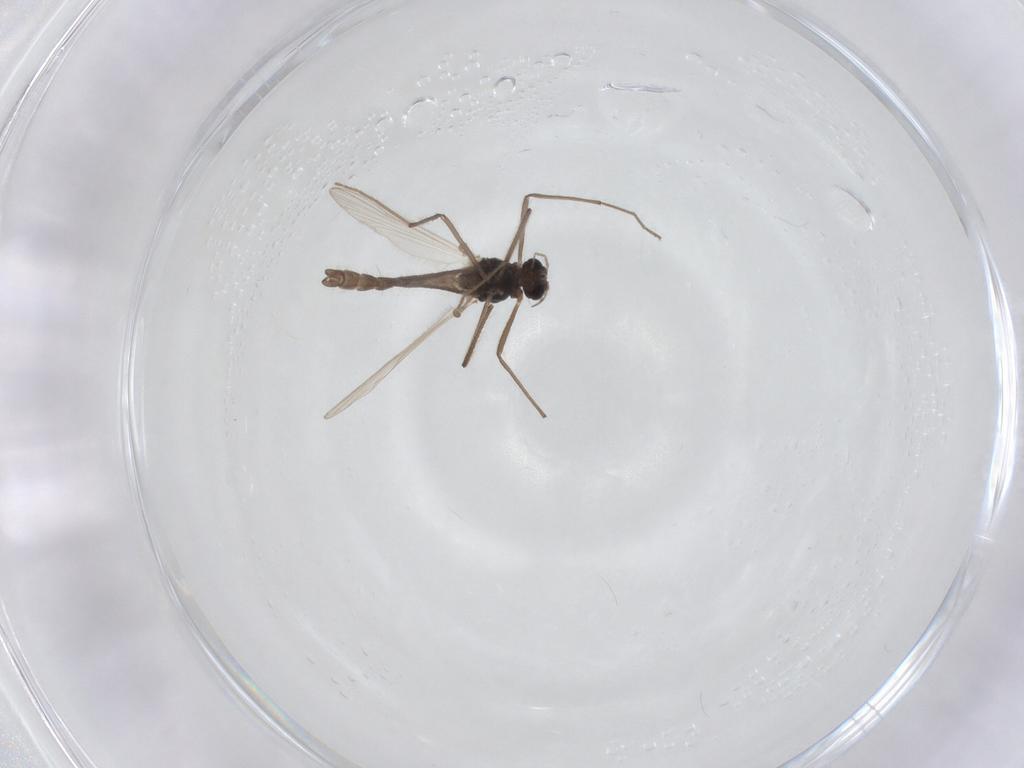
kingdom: Animalia
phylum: Arthropoda
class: Insecta
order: Diptera
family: Chironomidae
